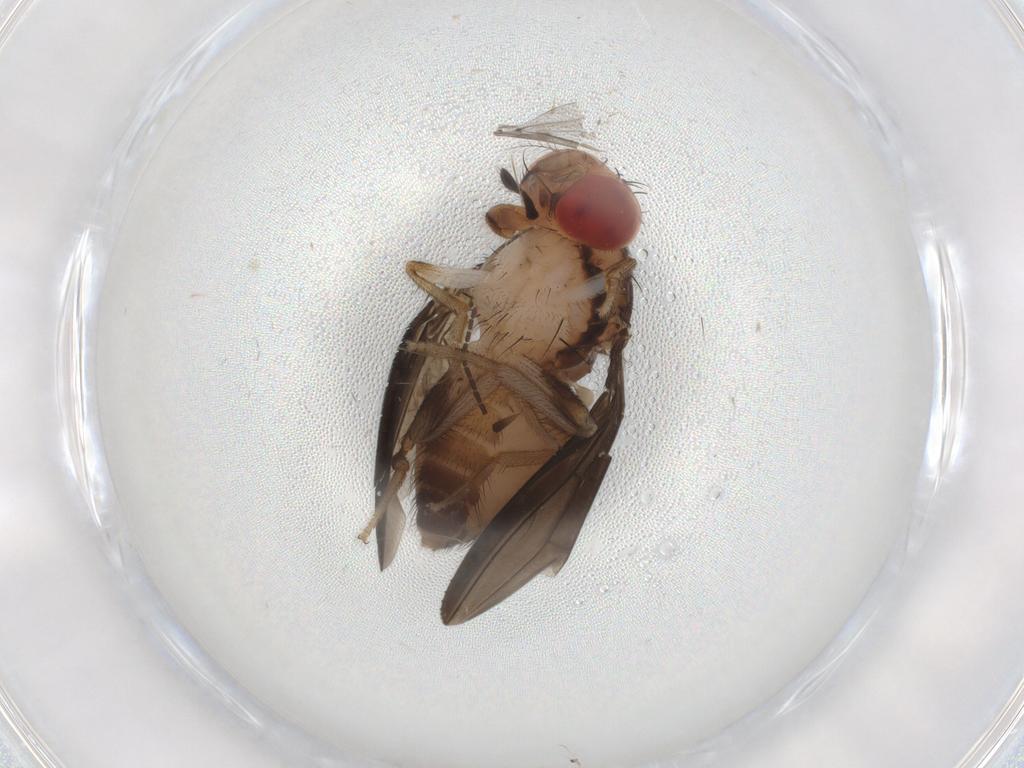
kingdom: Animalia
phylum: Arthropoda
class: Insecta
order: Diptera
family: Drosophilidae
